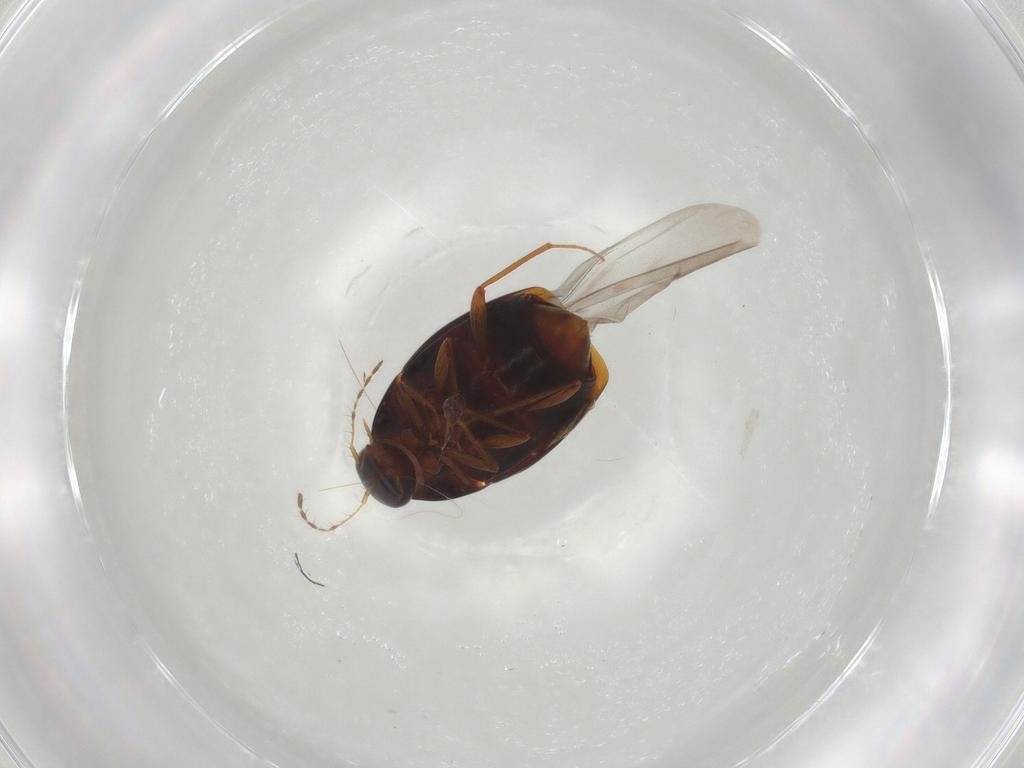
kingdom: Animalia
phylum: Arthropoda
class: Insecta
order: Coleoptera
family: Staphylinidae
